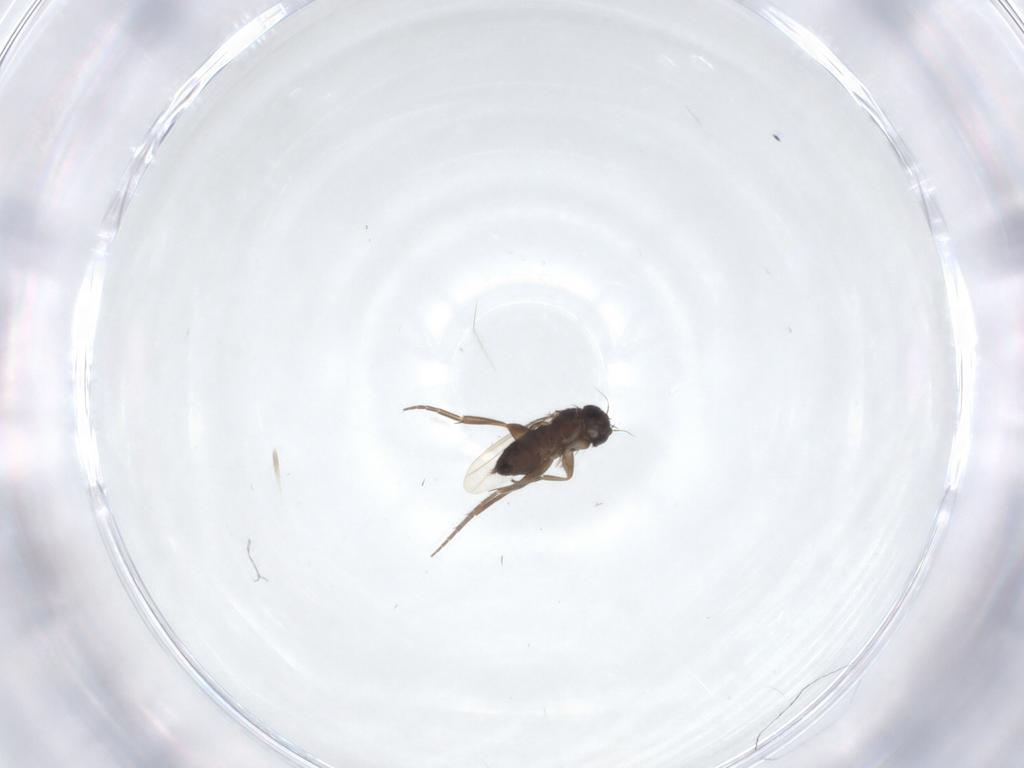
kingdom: Animalia
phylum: Arthropoda
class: Insecta
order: Diptera
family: Phoridae
